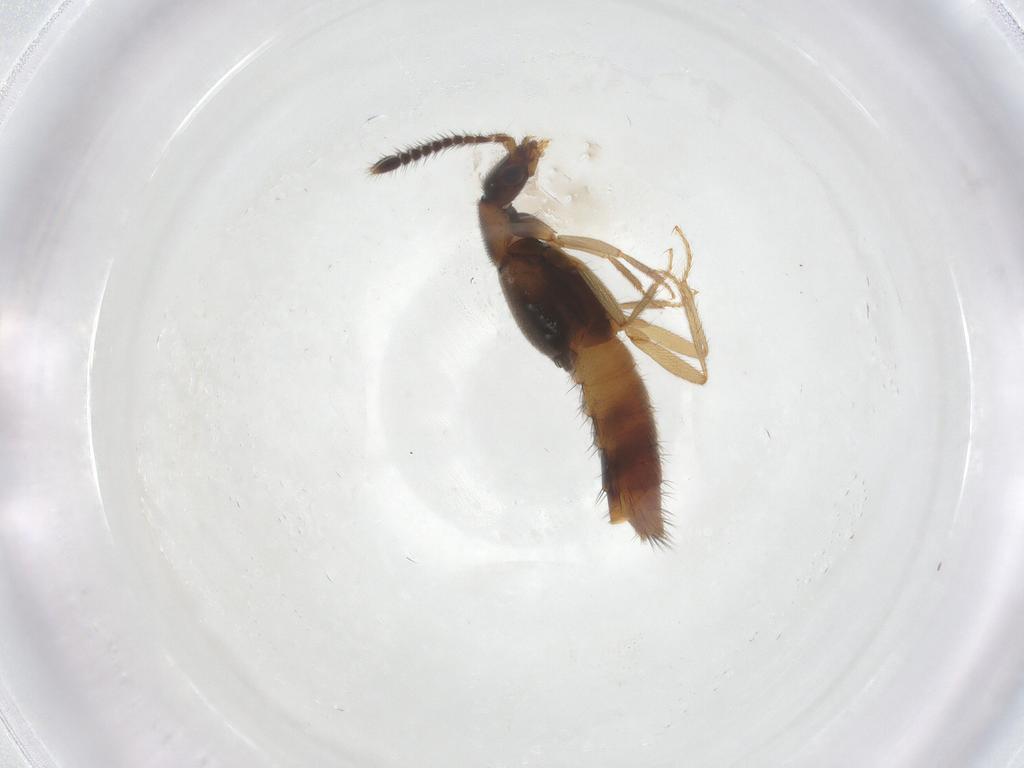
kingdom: Animalia
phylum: Arthropoda
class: Insecta
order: Coleoptera
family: Staphylinidae
